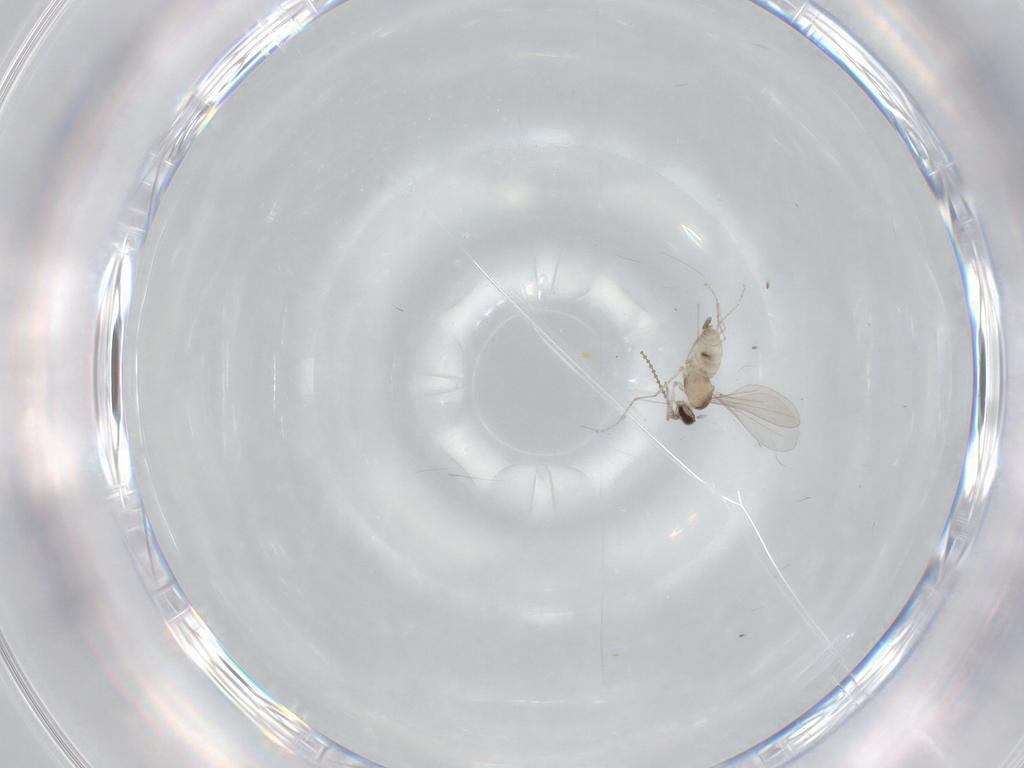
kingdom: Animalia
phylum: Arthropoda
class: Insecta
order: Diptera
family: Cecidomyiidae
